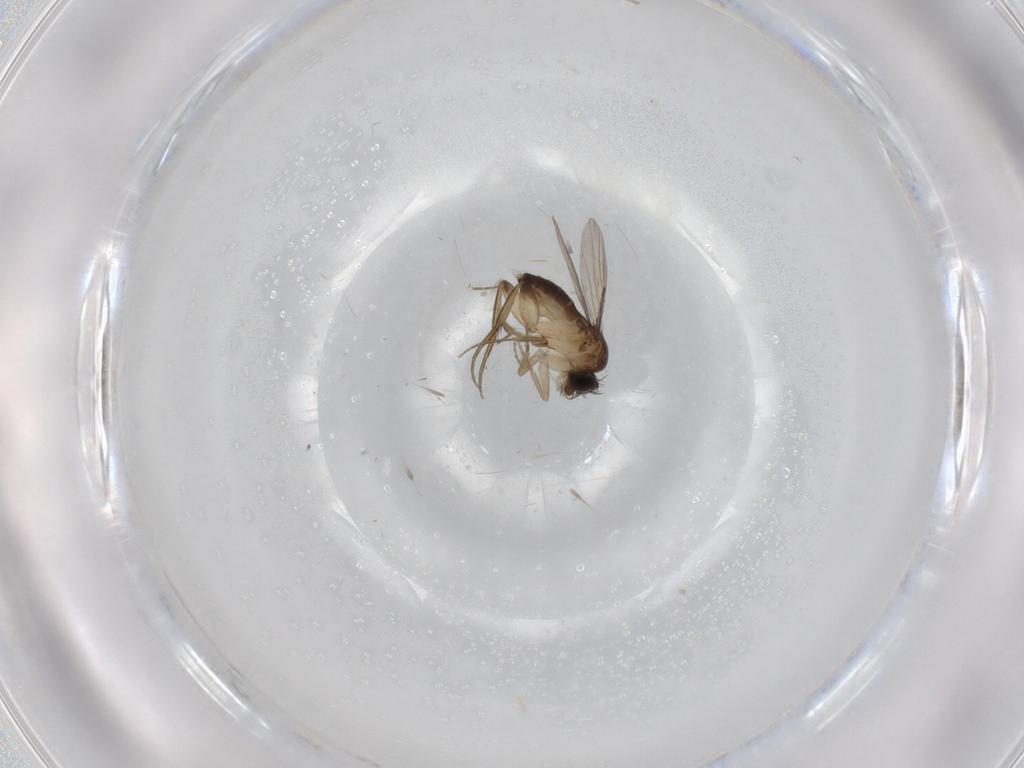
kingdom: Animalia
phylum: Arthropoda
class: Insecta
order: Diptera
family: Phoridae
